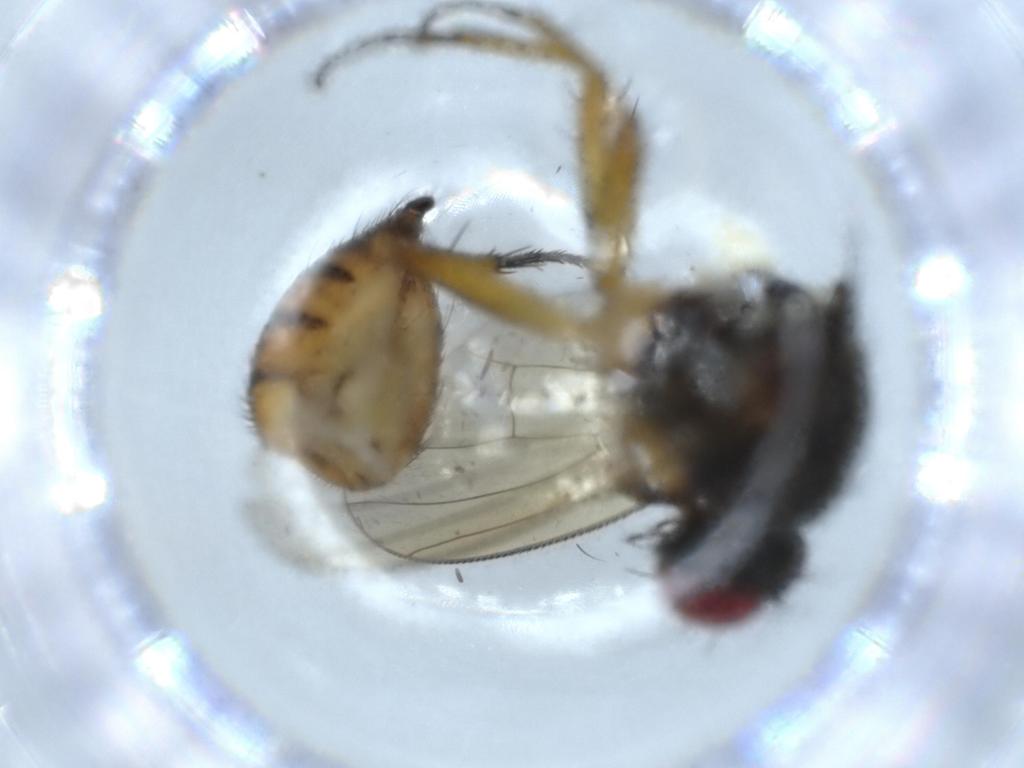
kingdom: Animalia
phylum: Arthropoda
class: Insecta
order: Diptera
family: Muscidae
